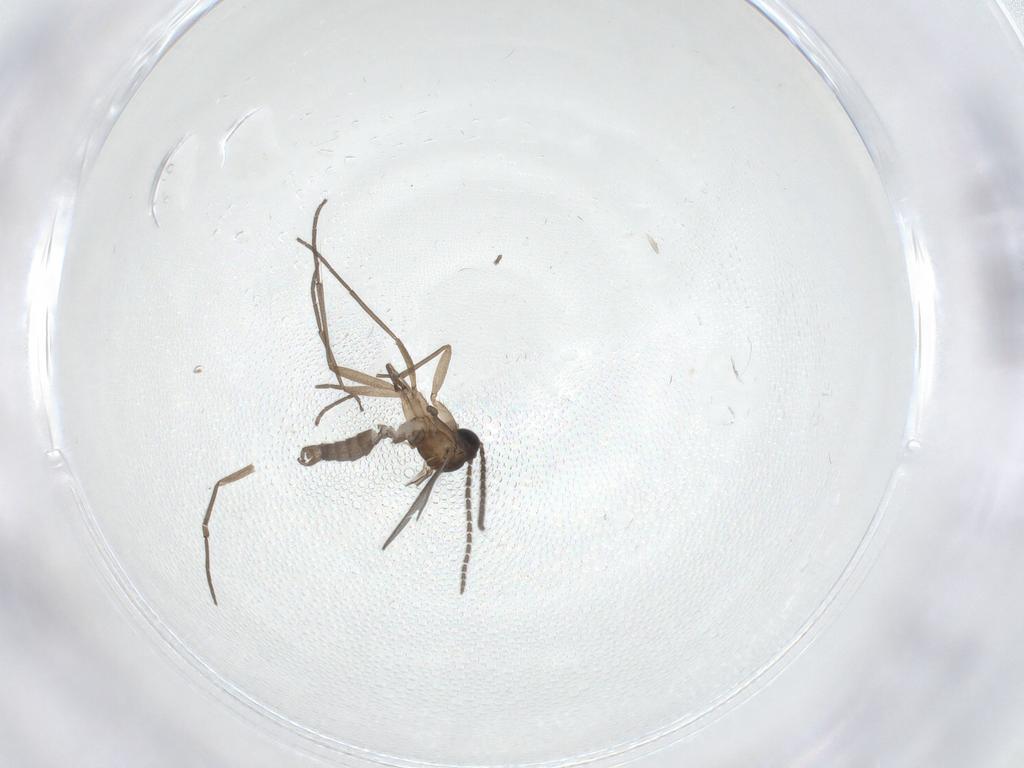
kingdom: Animalia
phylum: Arthropoda
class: Insecta
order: Diptera
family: Sciaridae
